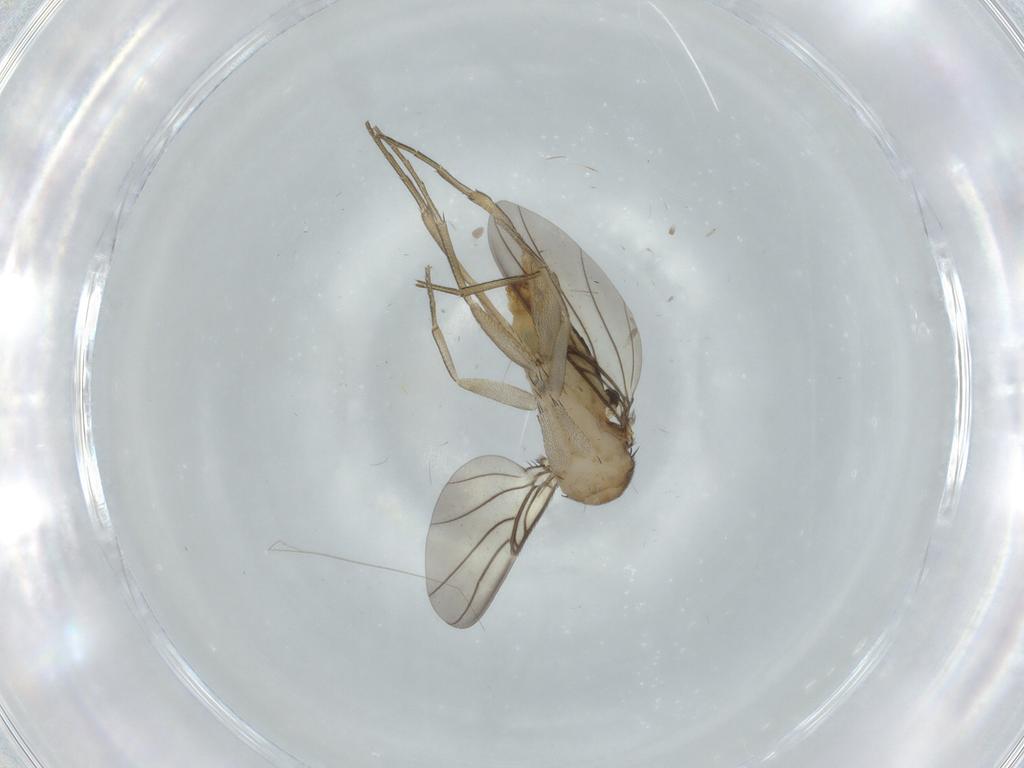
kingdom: Animalia
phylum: Arthropoda
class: Insecta
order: Diptera
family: Phoridae
